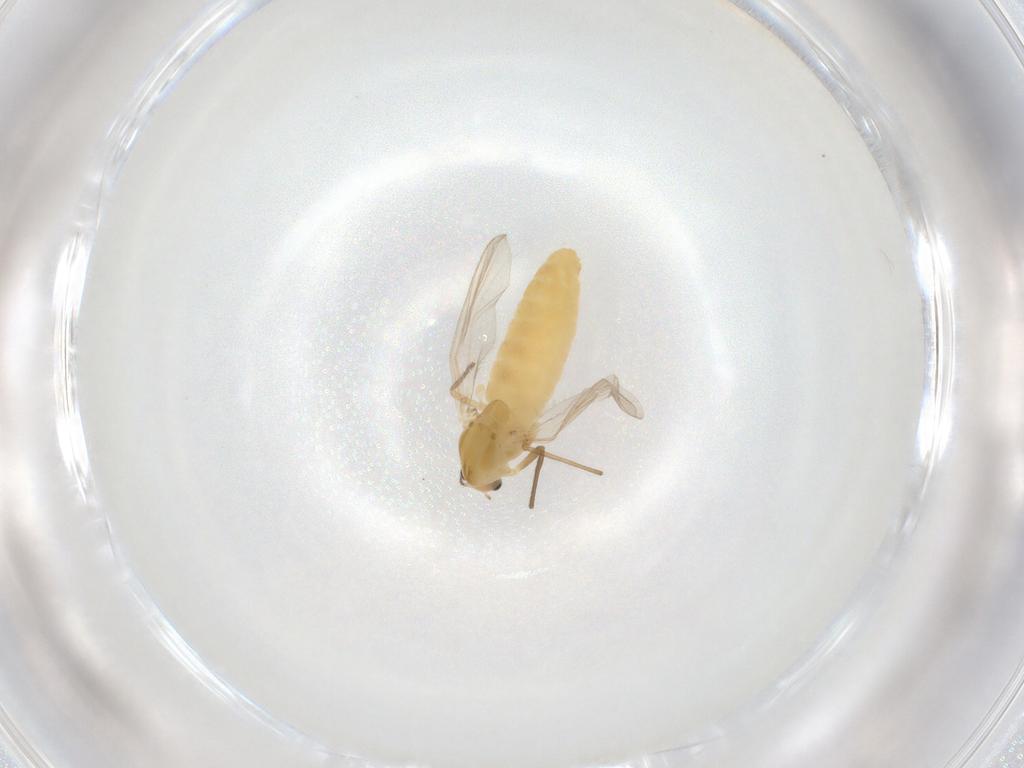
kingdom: Animalia
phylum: Arthropoda
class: Insecta
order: Diptera
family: Chironomidae
